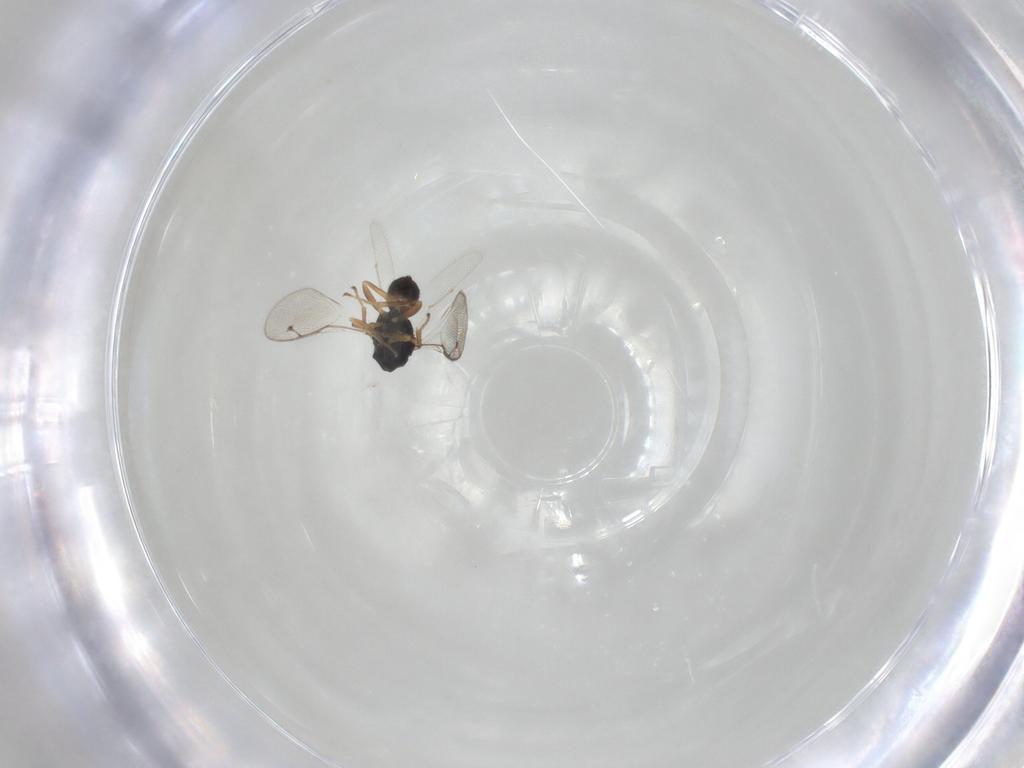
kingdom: Animalia
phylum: Arthropoda
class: Insecta
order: Hymenoptera
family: Pteromalidae
